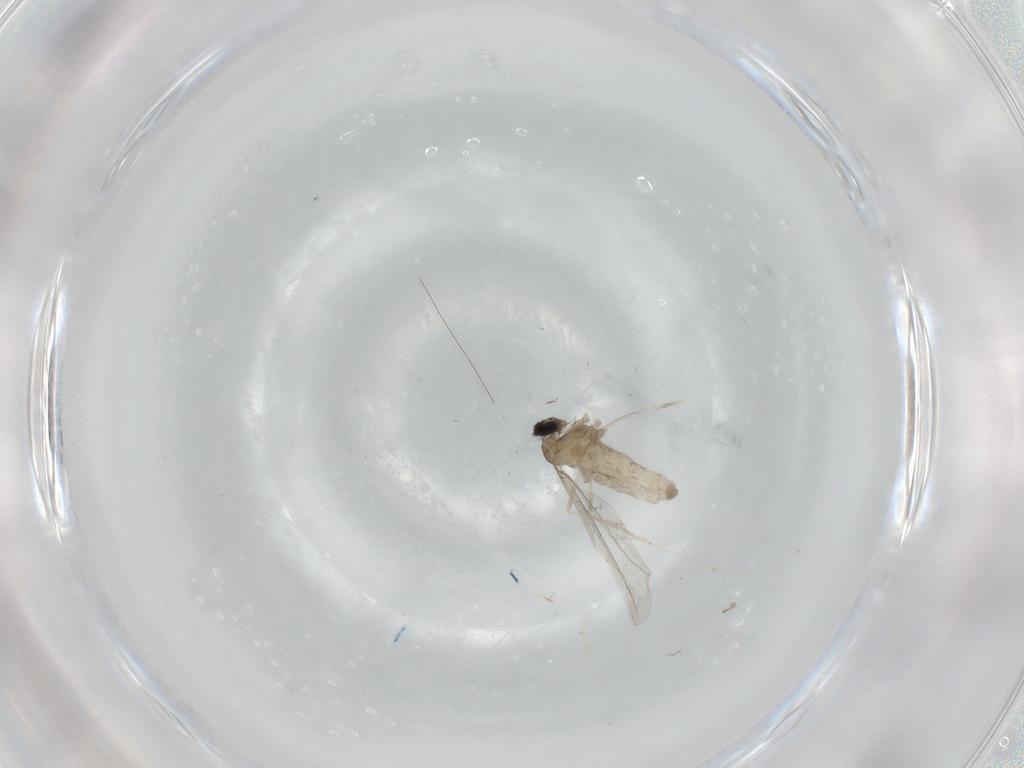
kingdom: Animalia
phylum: Arthropoda
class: Insecta
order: Diptera
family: Cecidomyiidae
